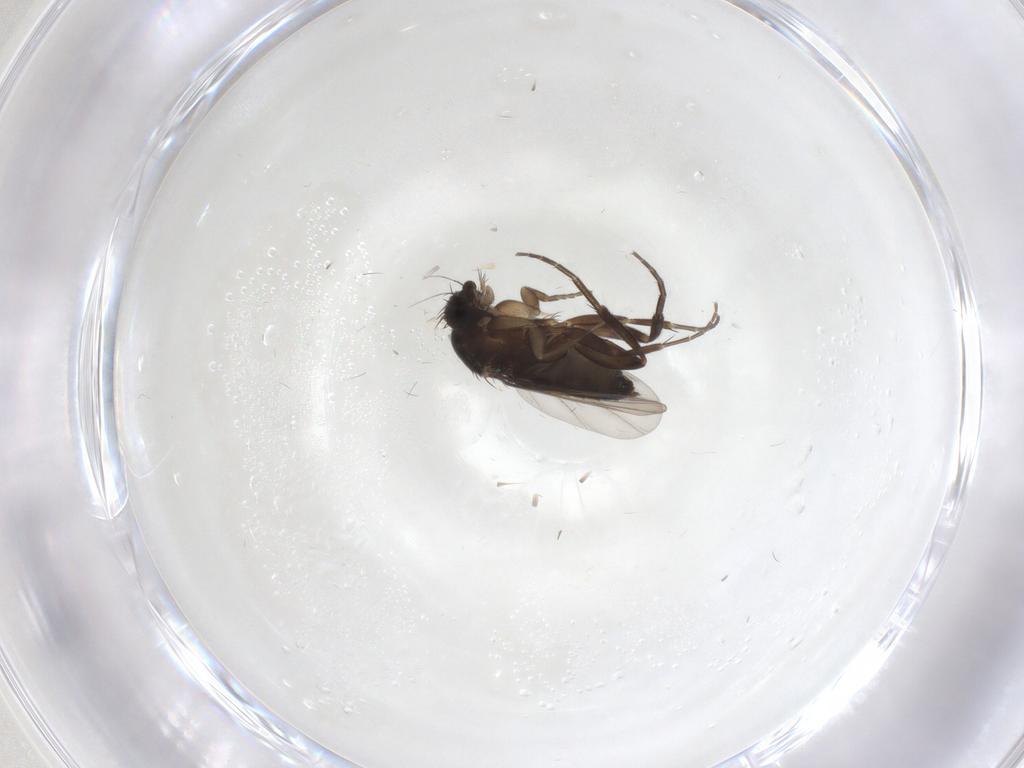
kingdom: Animalia
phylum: Arthropoda
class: Insecta
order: Diptera
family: Phoridae
